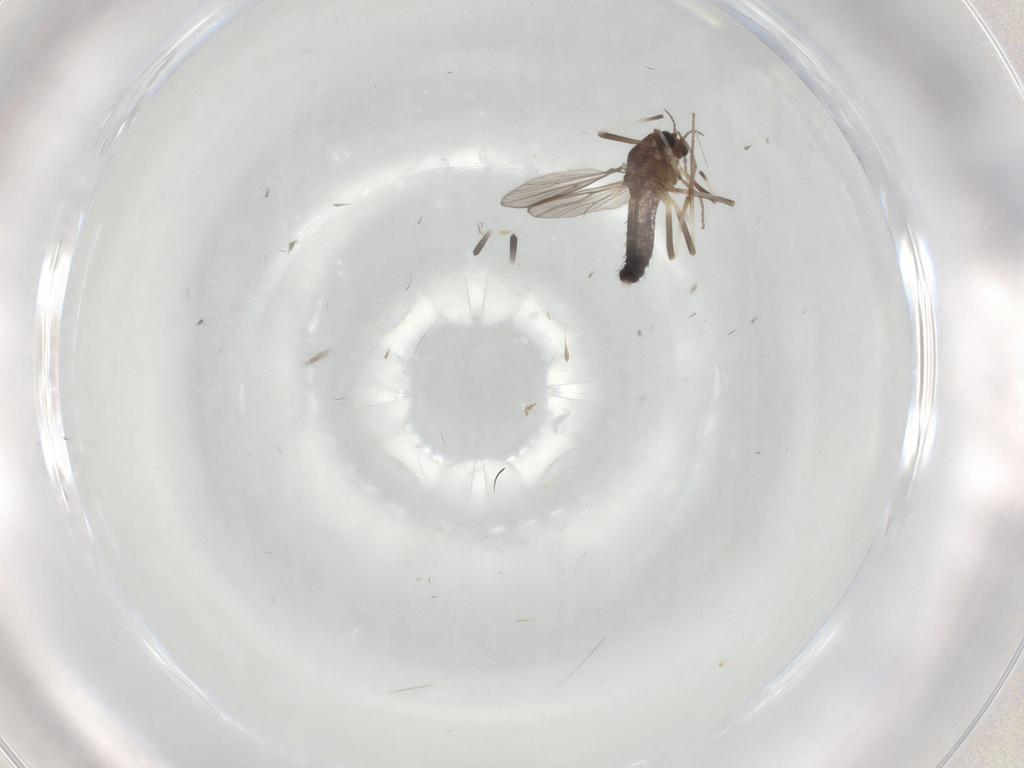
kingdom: Animalia
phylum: Arthropoda
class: Insecta
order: Diptera
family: Chironomidae
